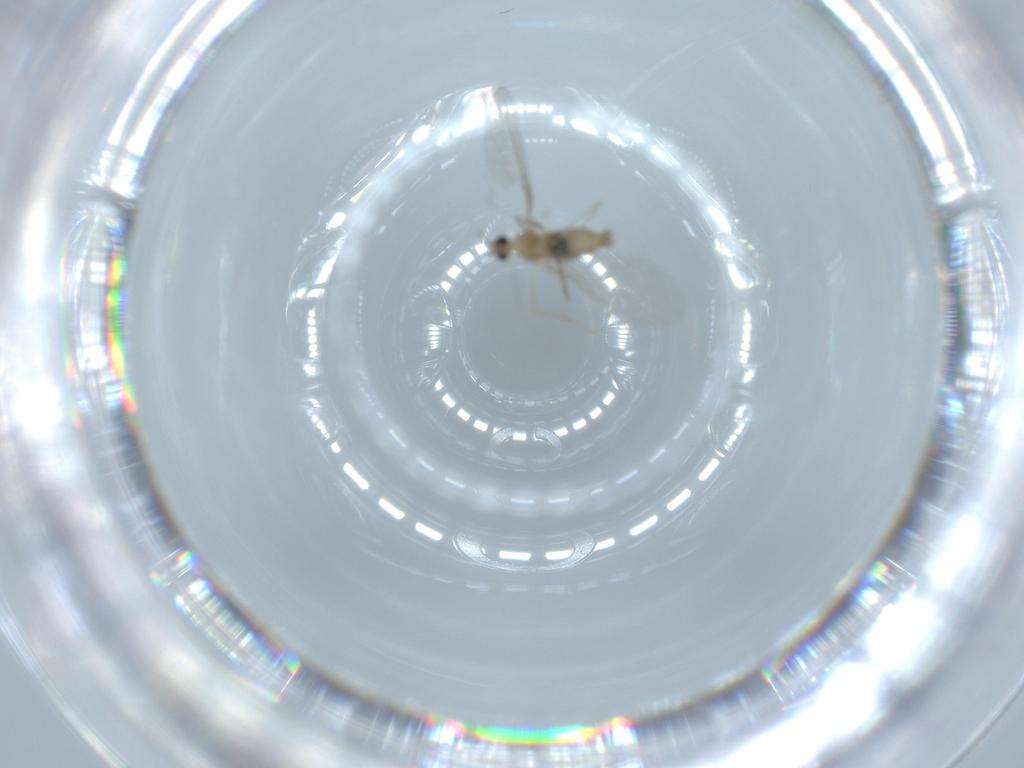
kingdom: Animalia
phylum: Arthropoda
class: Insecta
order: Diptera
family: Cecidomyiidae
